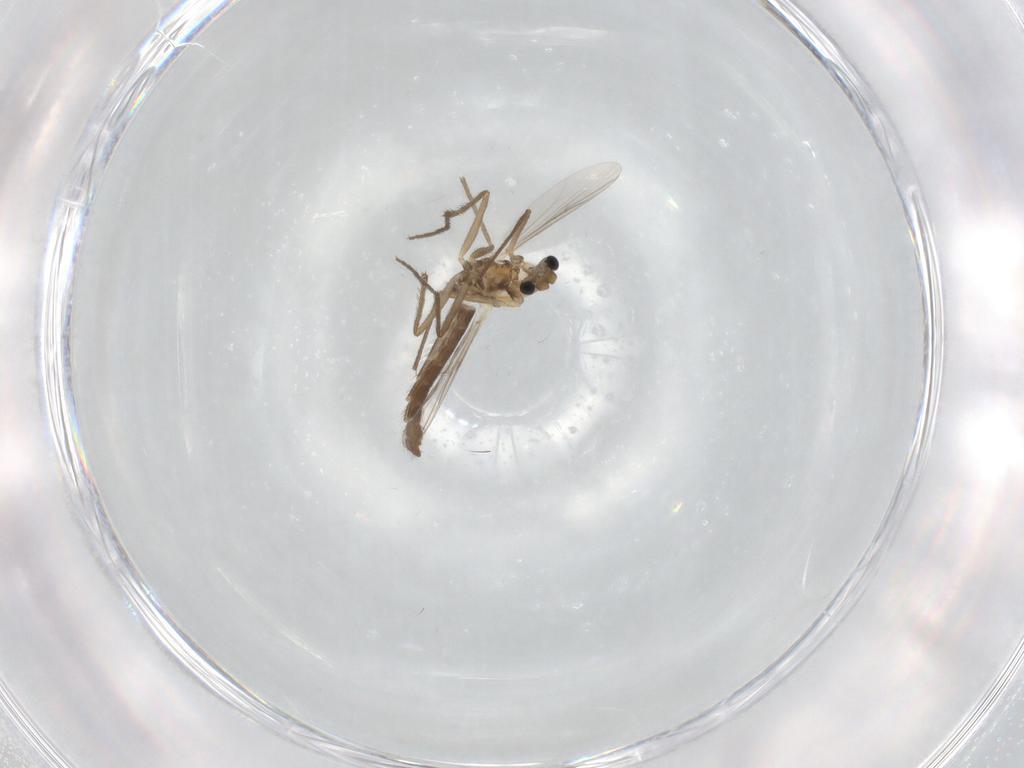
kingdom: Animalia
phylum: Arthropoda
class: Insecta
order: Diptera
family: Chironomidae
